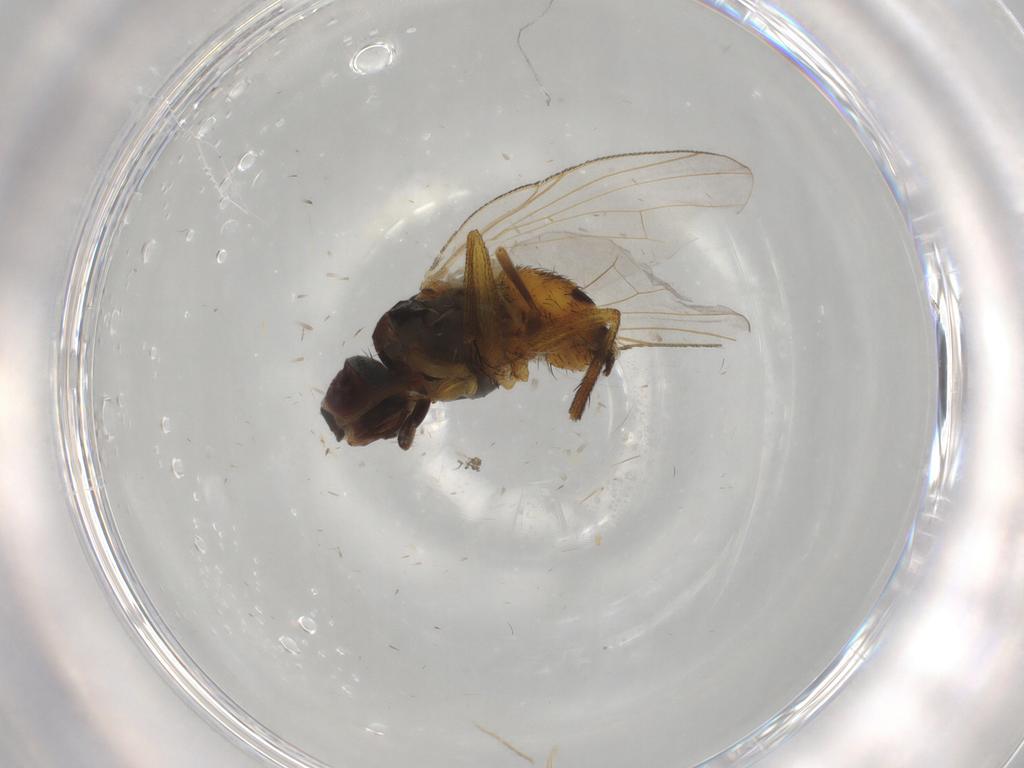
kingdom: Animalia
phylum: Arthropoda
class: Insecta
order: Diptera
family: Muscidae
